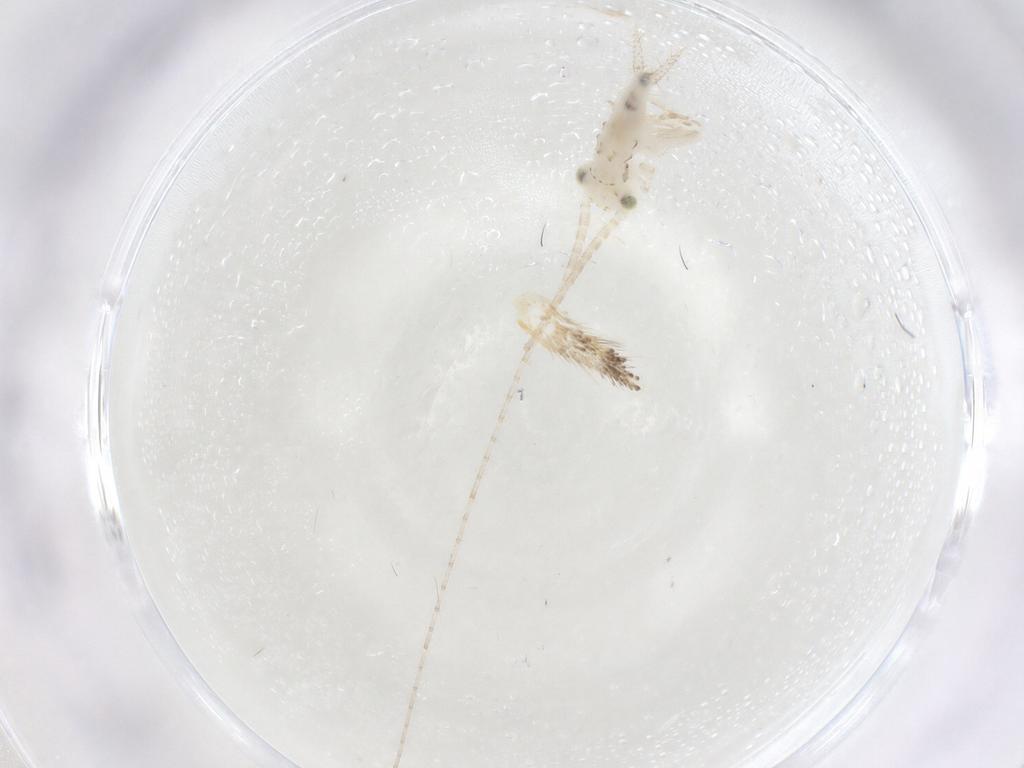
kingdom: Animalia
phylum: Arthropoda
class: Insecta
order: Orthoptera
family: Trigonidiidae
